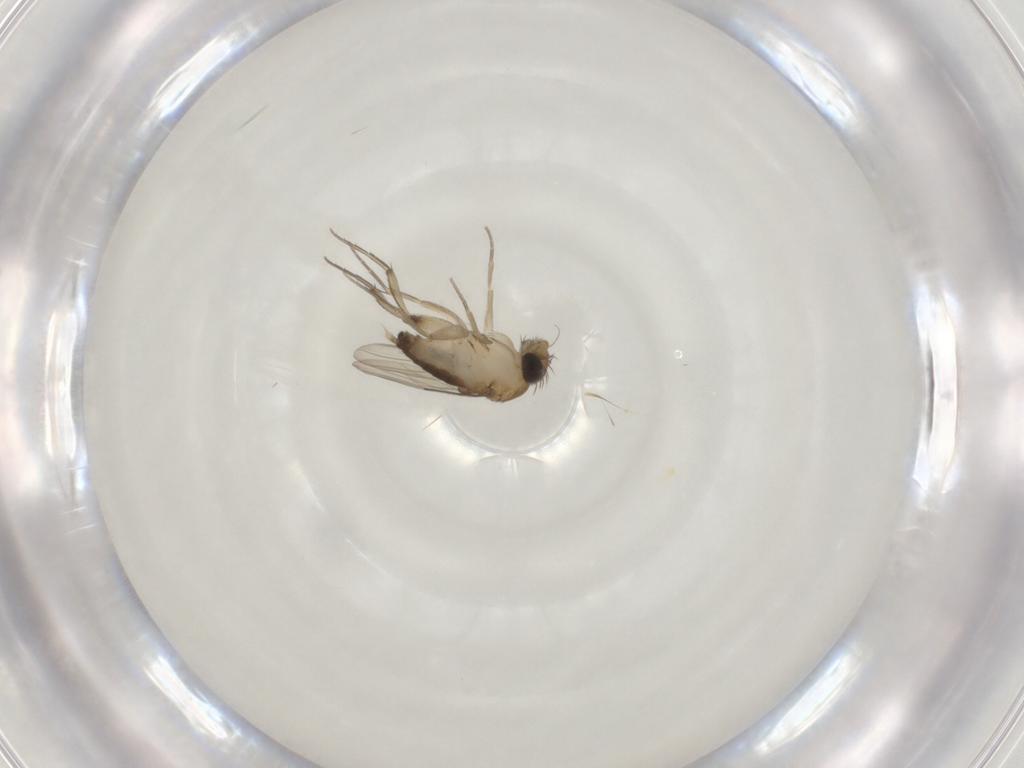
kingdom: Animalia
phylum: Arthropoda
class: Insecta
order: Diptera
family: Phoridae
